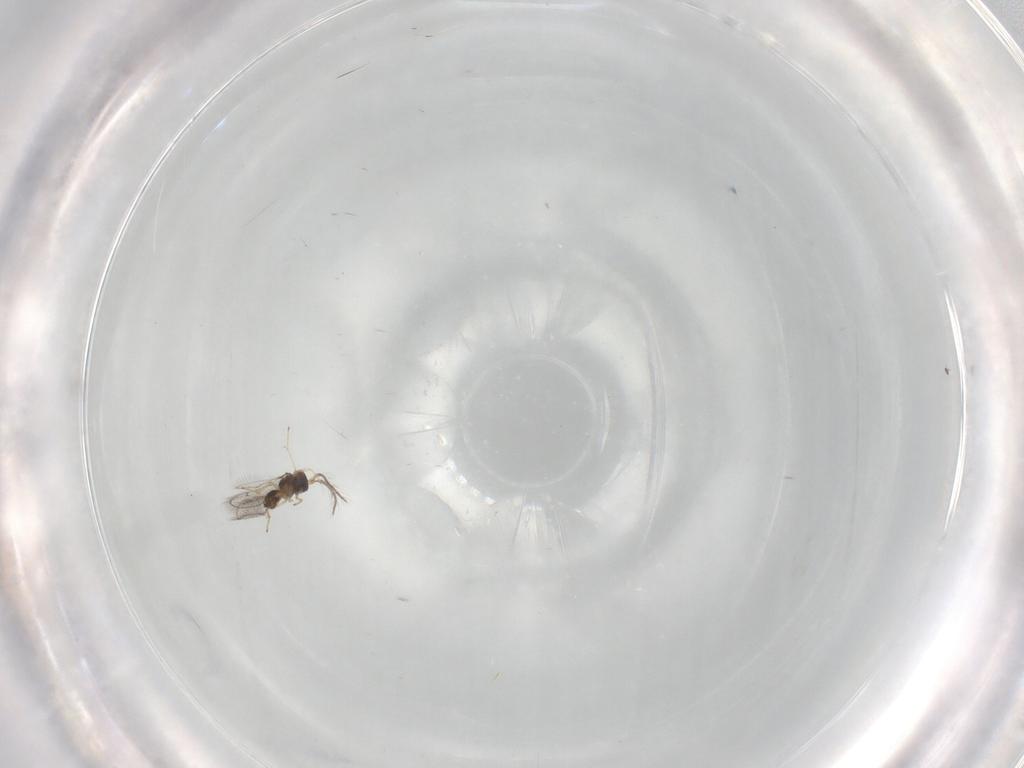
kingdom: Animalia
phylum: Arthropoda
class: Insecta
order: Hymenoptera
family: Eulophidae
